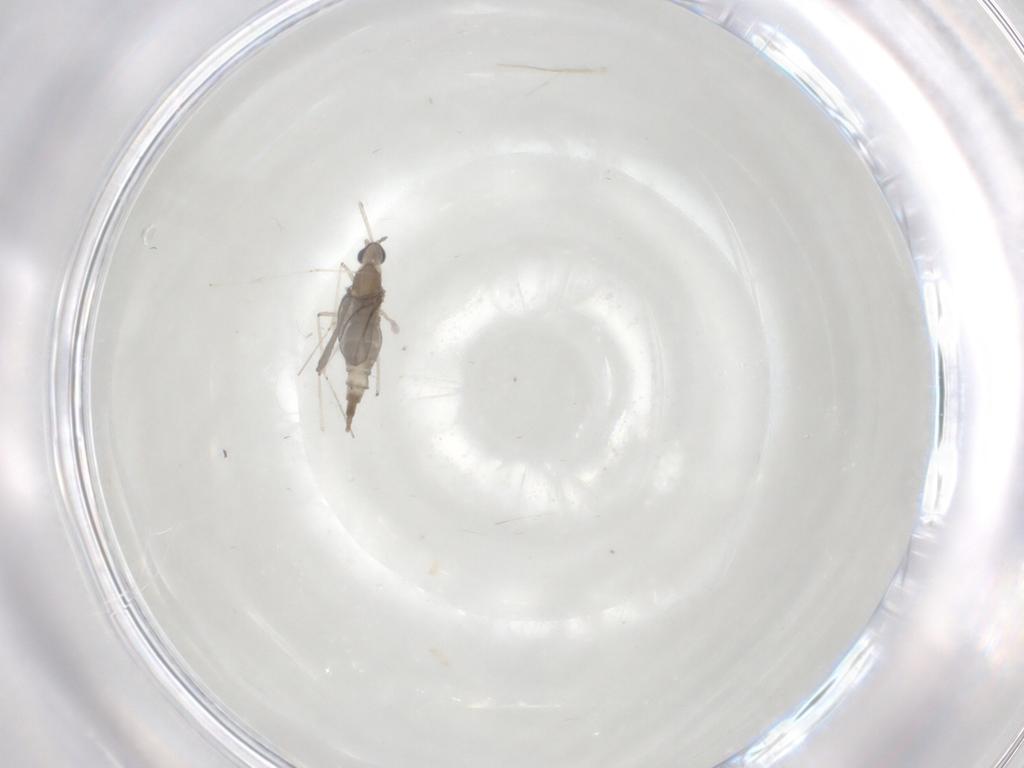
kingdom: Animalia
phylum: Arthropoda
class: Insecta
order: Diptera
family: Cecidomyiidae
